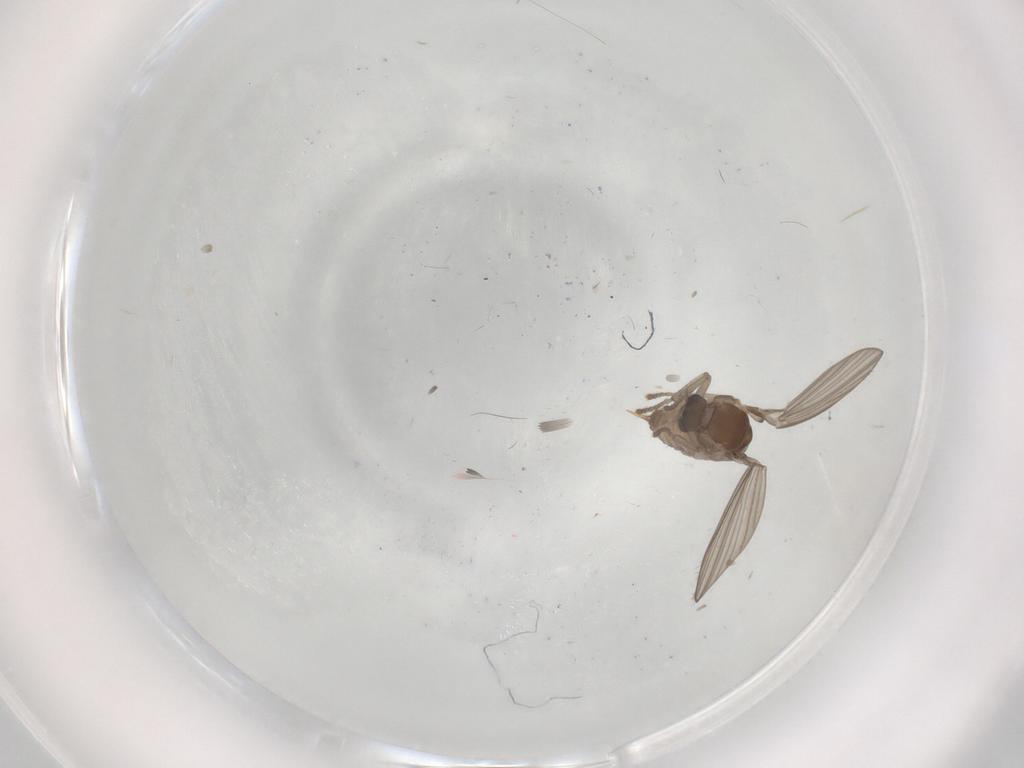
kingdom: Animalia
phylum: Arthropoda
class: Insecta
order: Diptera
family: Psychodidae
